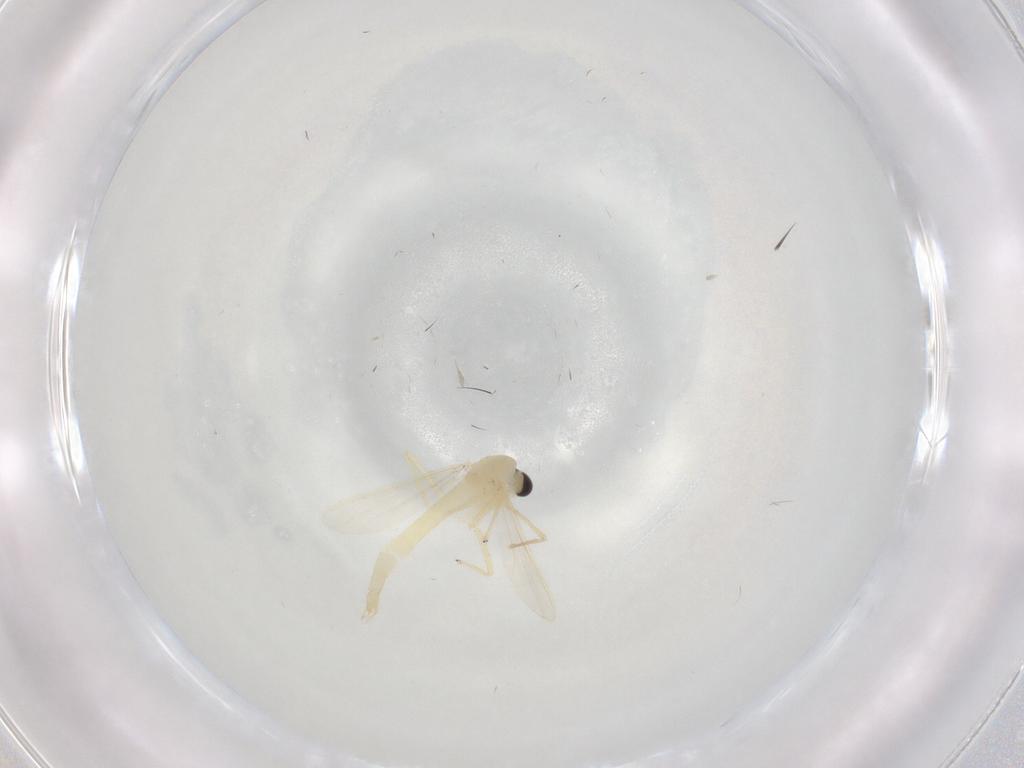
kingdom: Animalia
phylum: Arthropoda
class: Insecta
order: Diptera
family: Chironomidae
